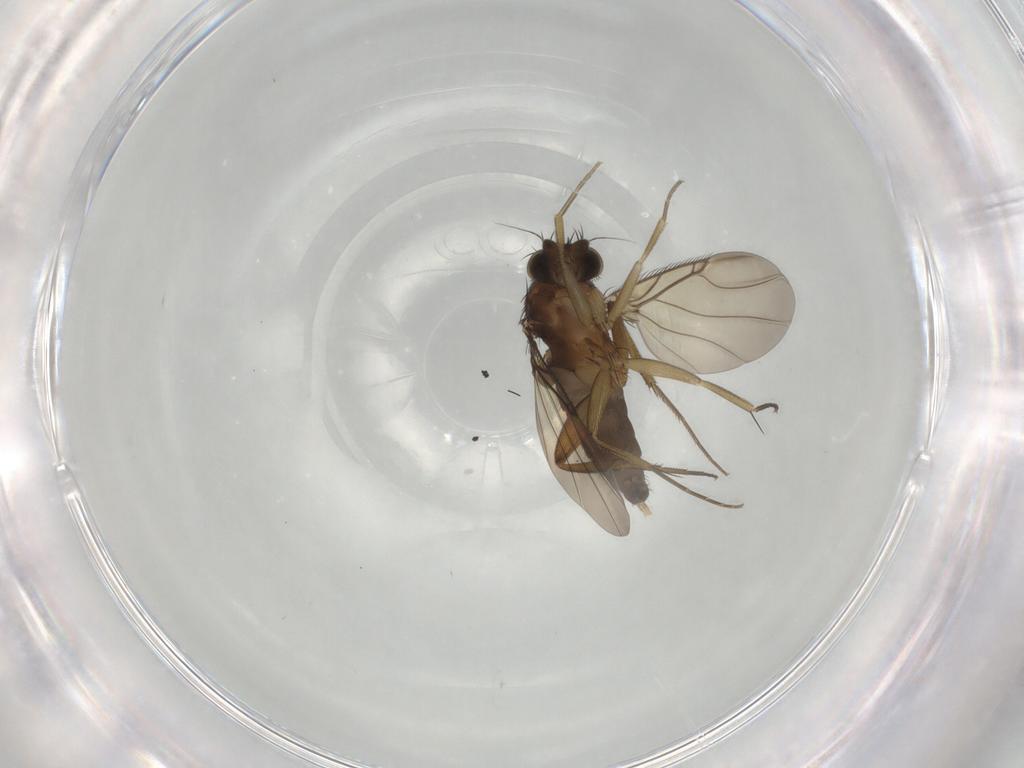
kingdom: Animalia
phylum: Arthropoda
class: Insecta
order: Diptera
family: Phoridae
